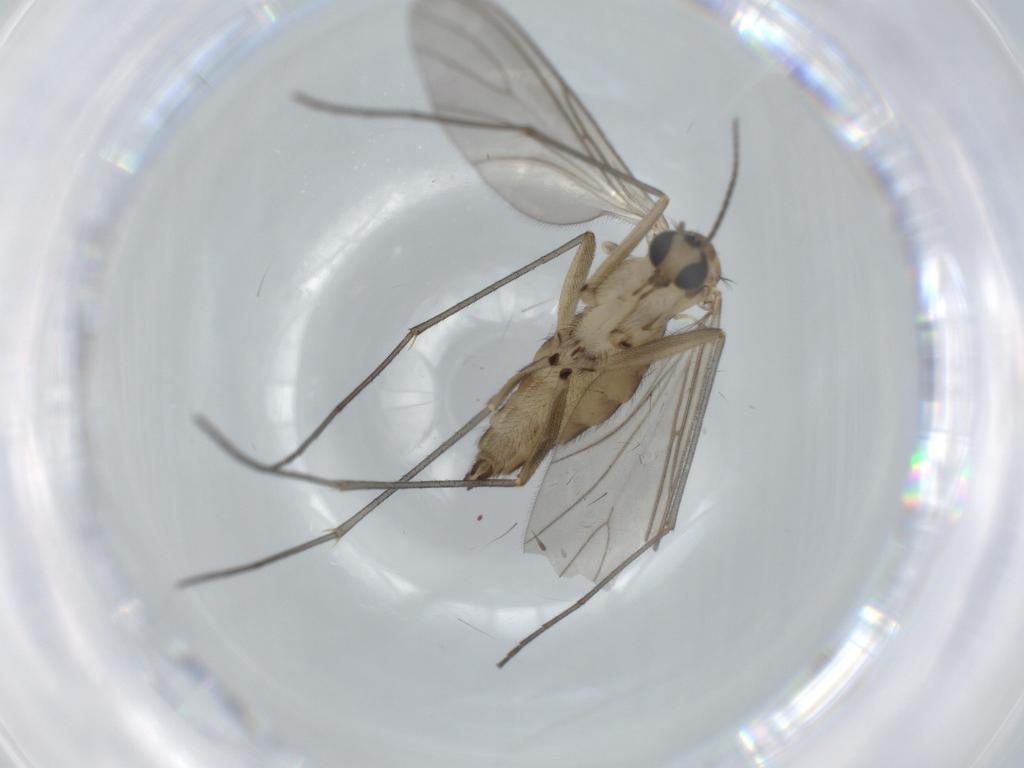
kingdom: Animalia
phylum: Arthropoda
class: Insecta
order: Diptera
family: Sciaridae
